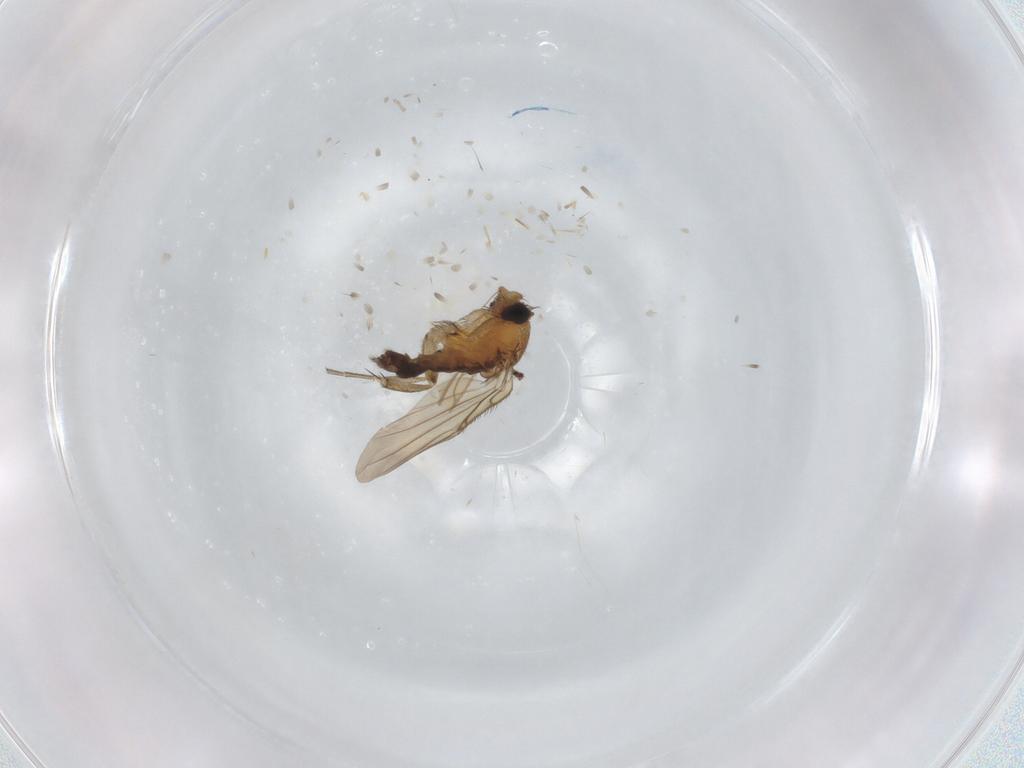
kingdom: Animalia
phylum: Arthropoda
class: Insecta
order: Diptera
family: Phoridae
